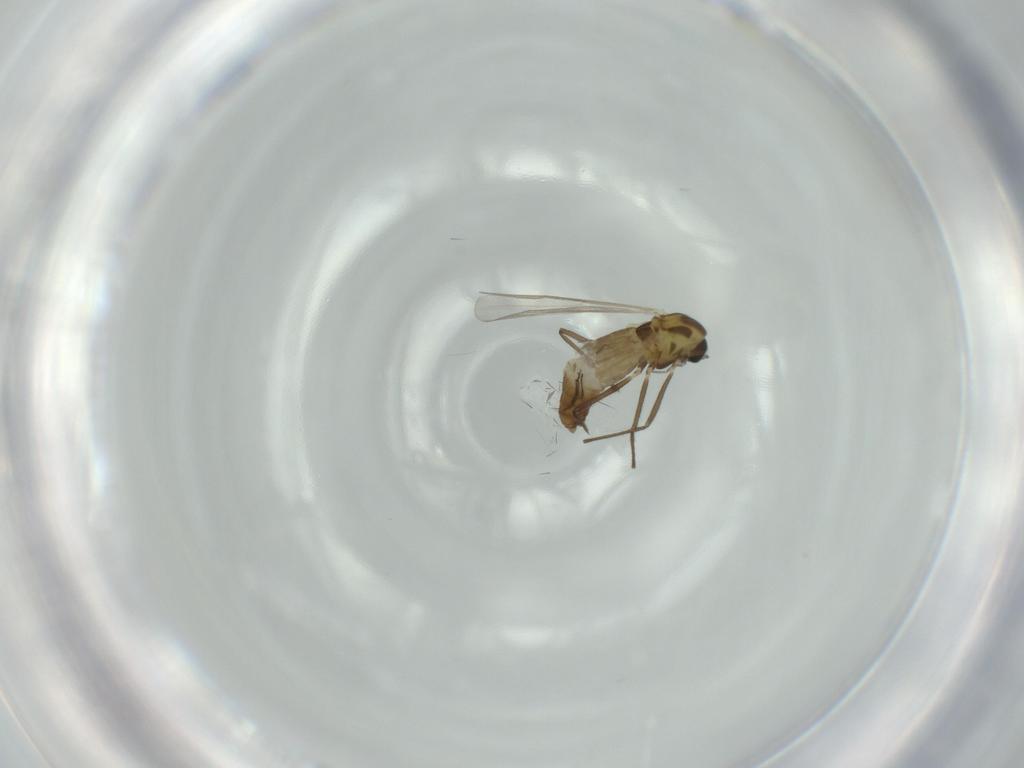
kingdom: Animalia
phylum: Arthropoda
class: Insecta
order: Diptera
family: Chironomidae
